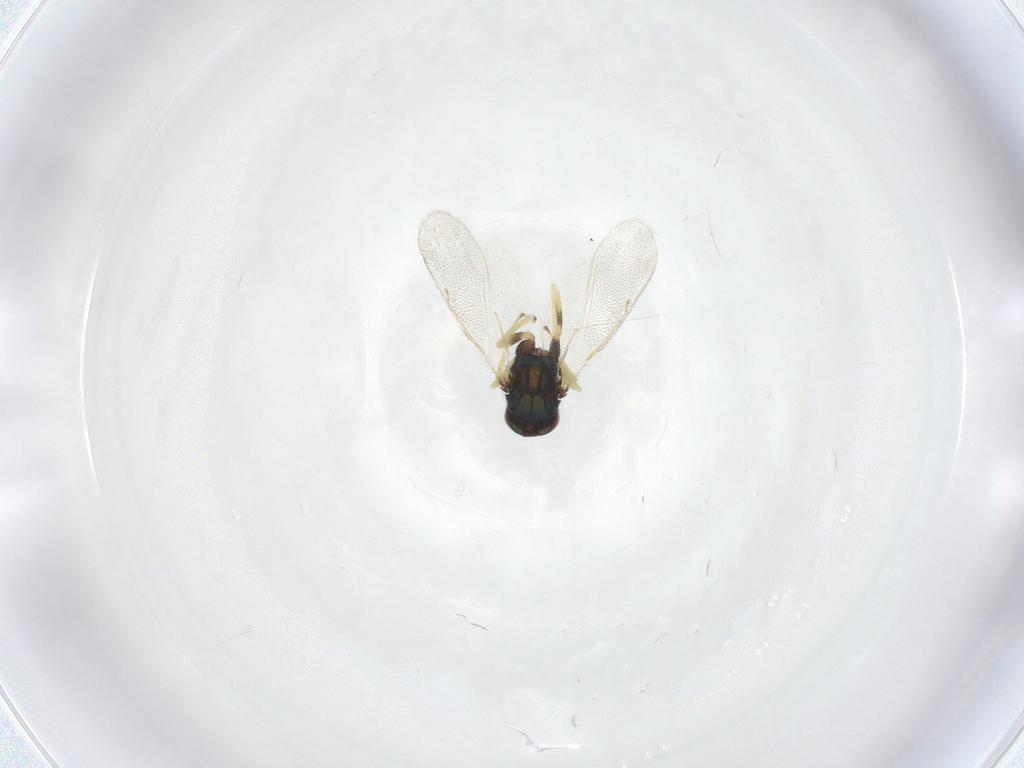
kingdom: Animalia
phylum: Arthropoda
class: Insecta
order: Hymenoptera
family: Eulophidae
